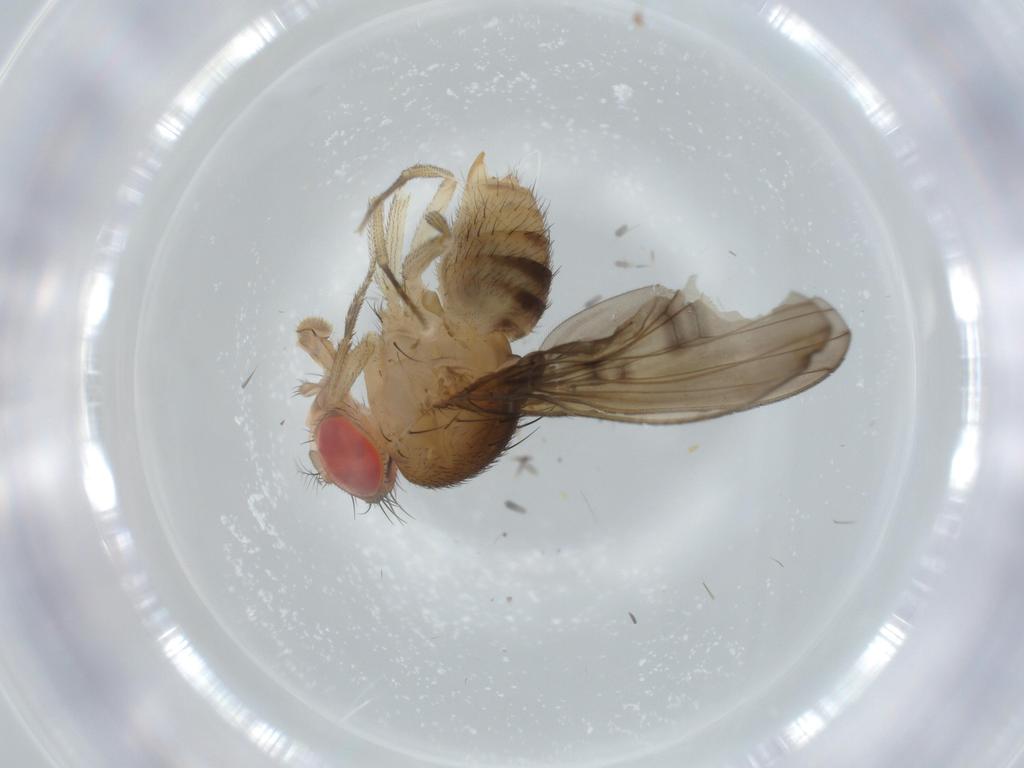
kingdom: Animalia
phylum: Arthropoda
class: Insecta
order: Diptera
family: Drosophilidae
